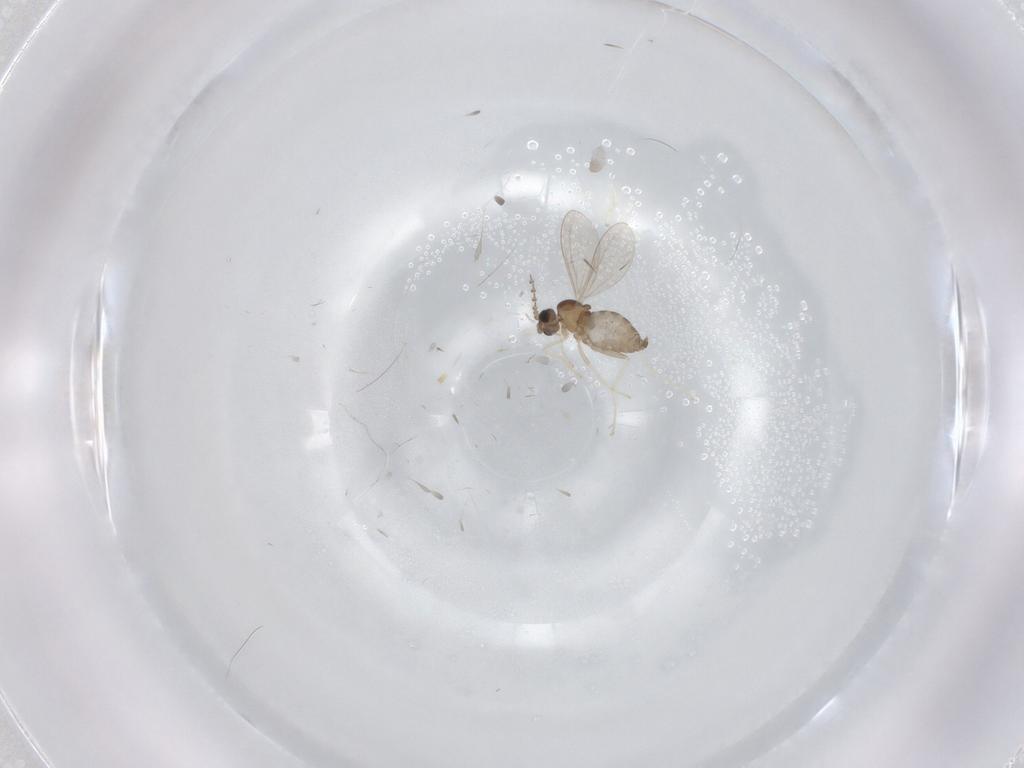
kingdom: Animalia
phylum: Arthropoda
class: Insecta
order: Diptera
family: Cecidomyiidae
